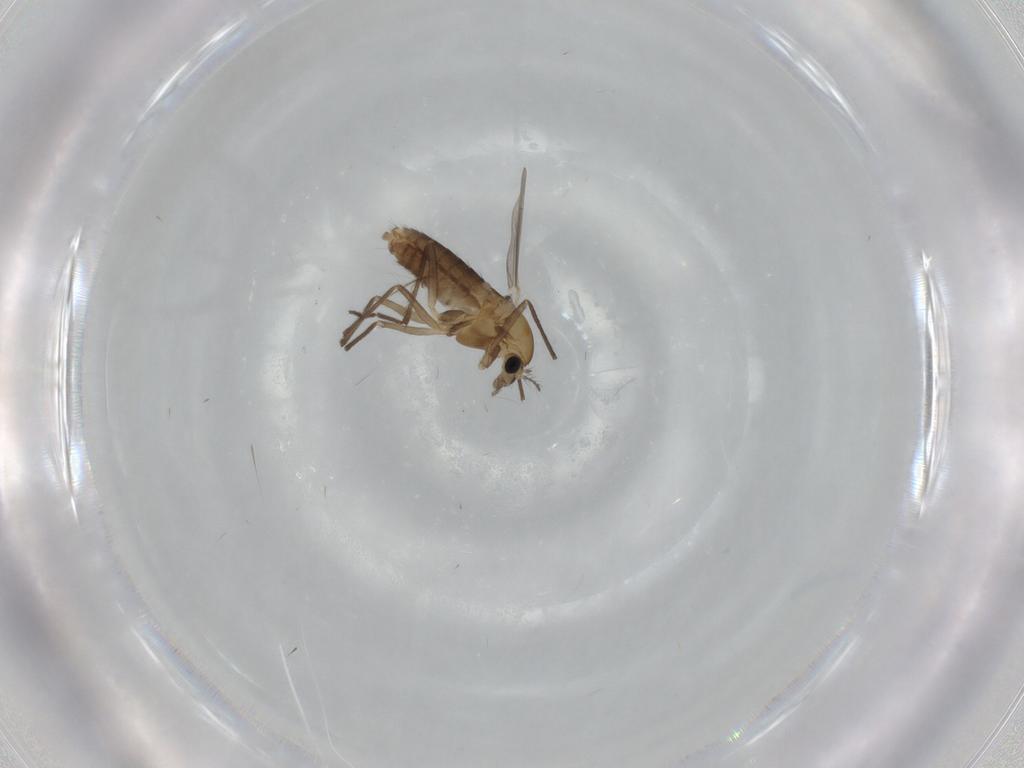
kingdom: Animalia
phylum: Arthropoda
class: Insecta
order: Diptera
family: Chironomidae
